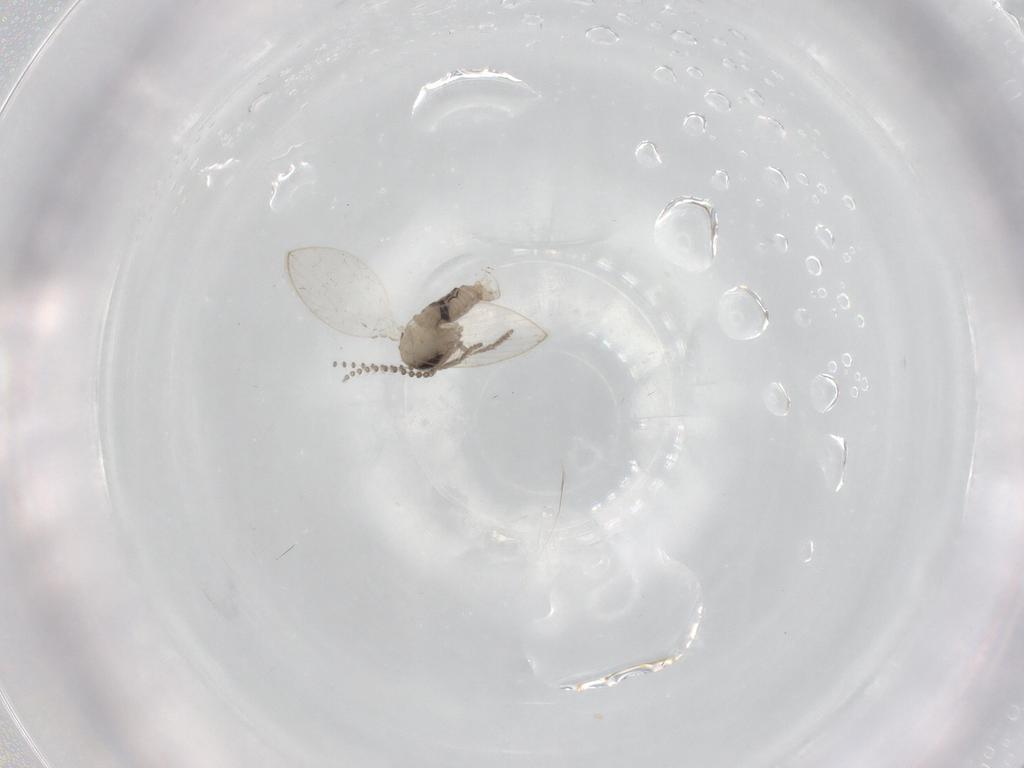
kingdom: Animalia
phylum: Arthropoda
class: Insecta
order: Diptera
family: Psychodidae
